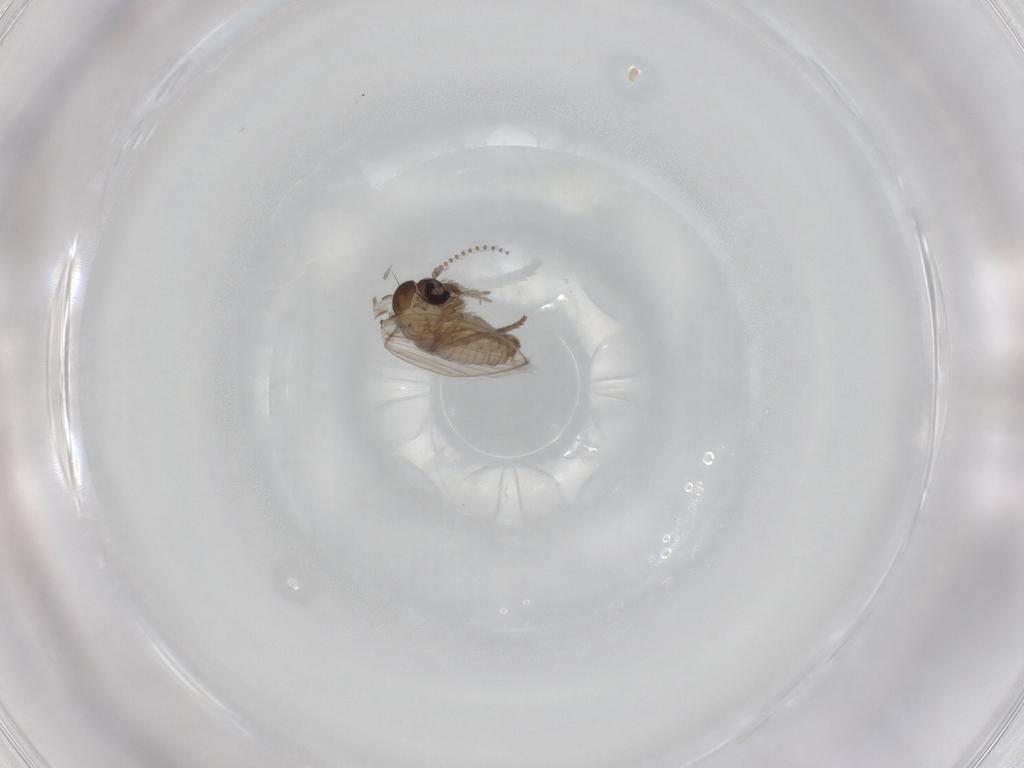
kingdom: Animalia
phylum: Arthropoda
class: Insecta
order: Diptera
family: Psychodidae
